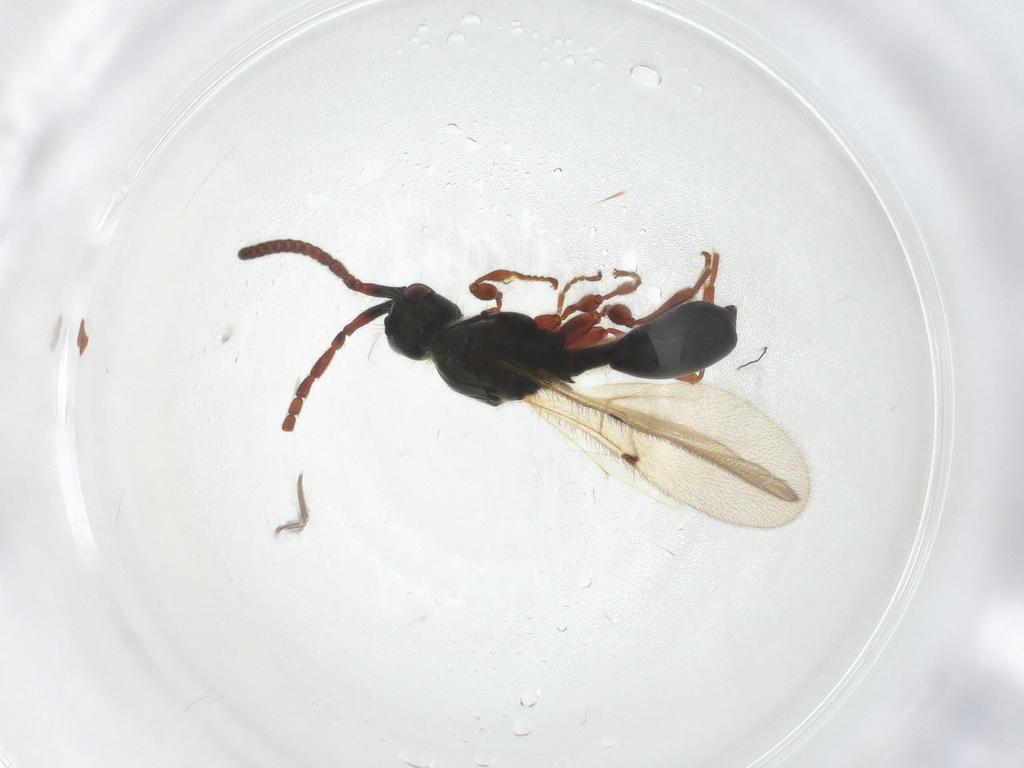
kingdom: Animalia
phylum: Arthropoda
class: Insecta
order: Hymenoptera
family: Diapriidae
